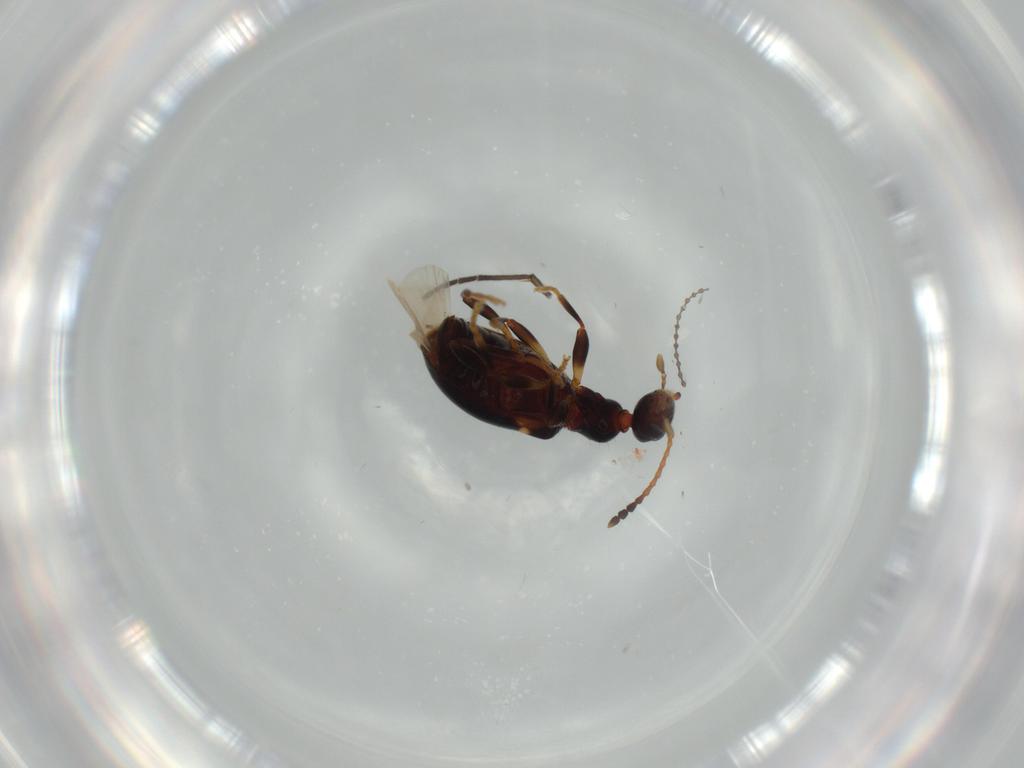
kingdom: Animalia
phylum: Arthropoda
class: Insecta
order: Coleoptera
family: Anthicidae
